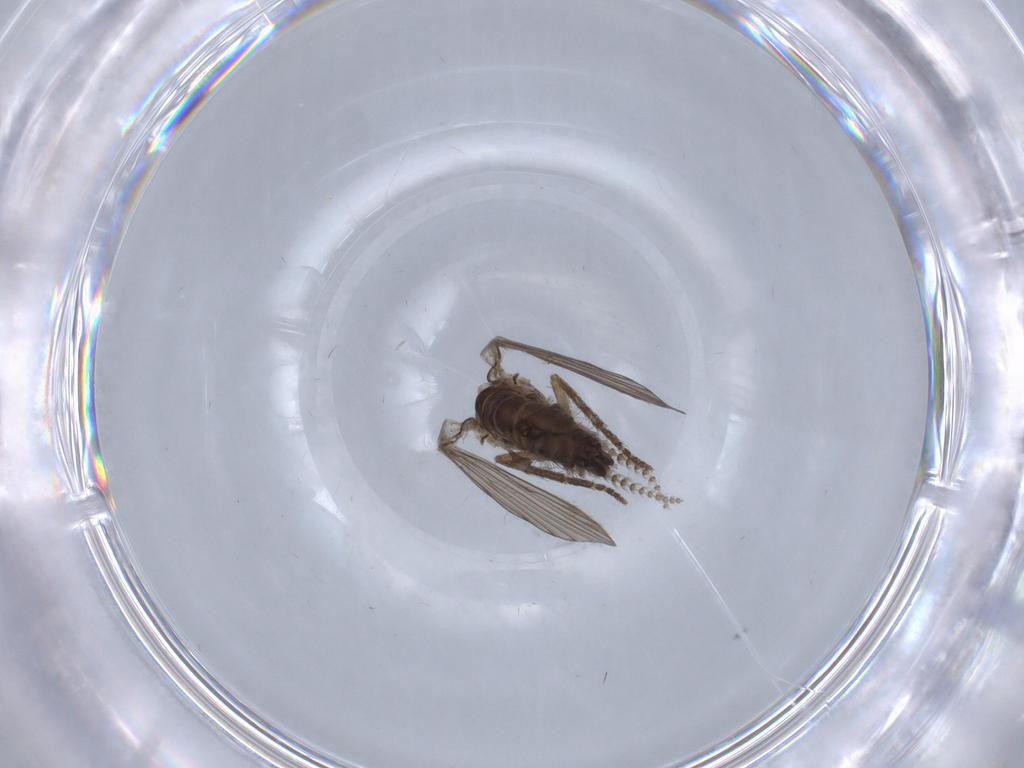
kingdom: Animalia
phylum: Arthropoda
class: Insecta
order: Diptera
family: Psychodidae
